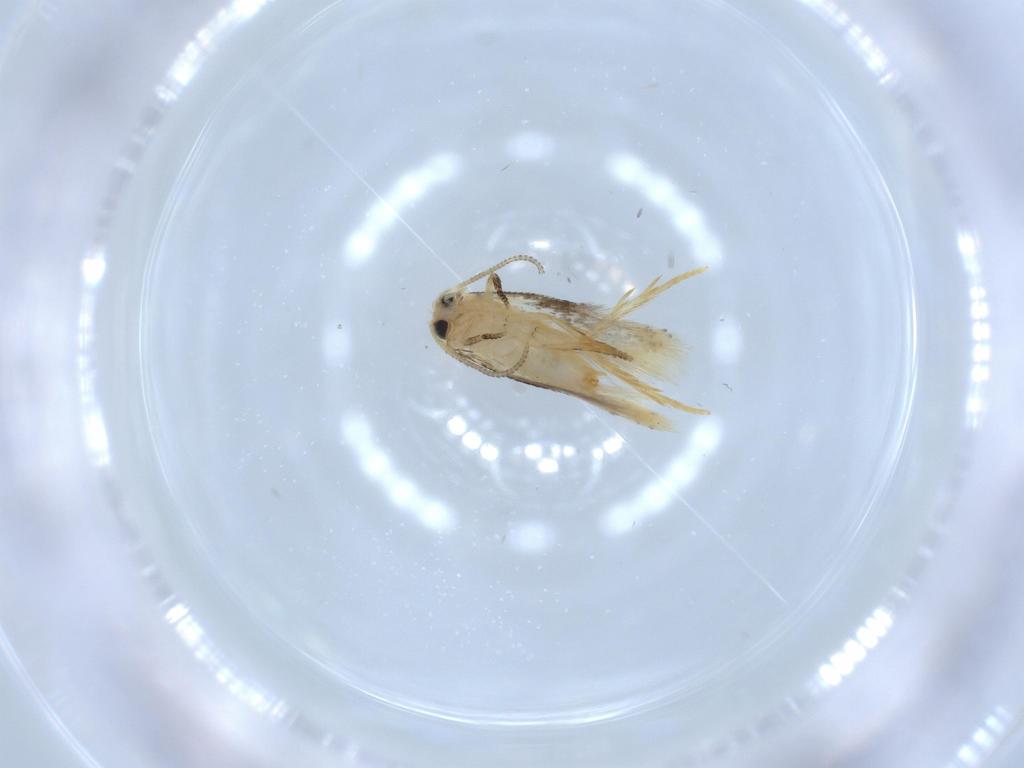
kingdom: Animalia
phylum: Arthropoda
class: Insecta
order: Lepidoptera
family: Nepticulidae
